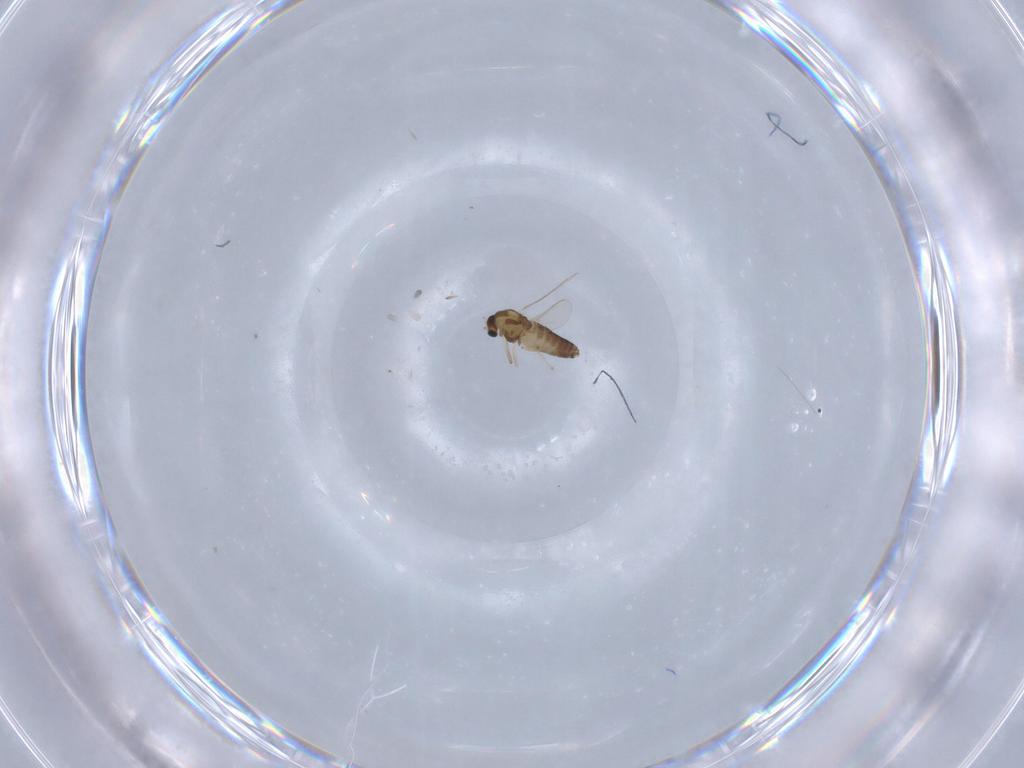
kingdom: Animalia
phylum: Arthropoda
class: Insecta
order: Diptera
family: Chironomidae
